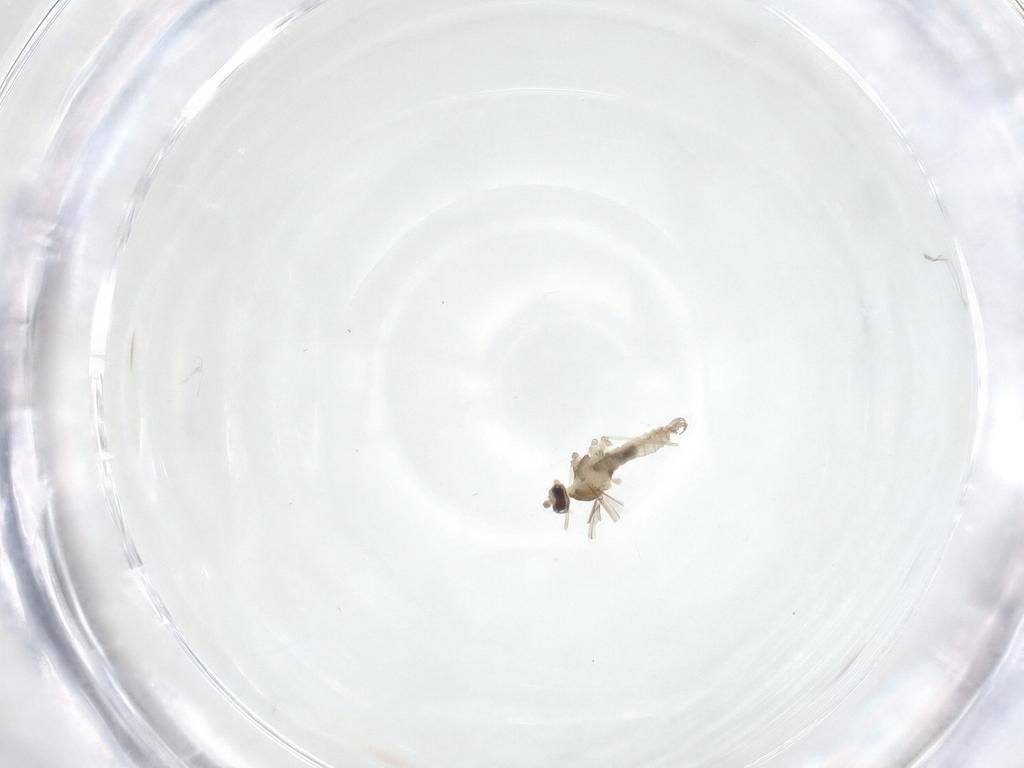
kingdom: Animalia
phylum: Arthropoda
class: Insecta
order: Diptera
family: Cecidomyiidae
